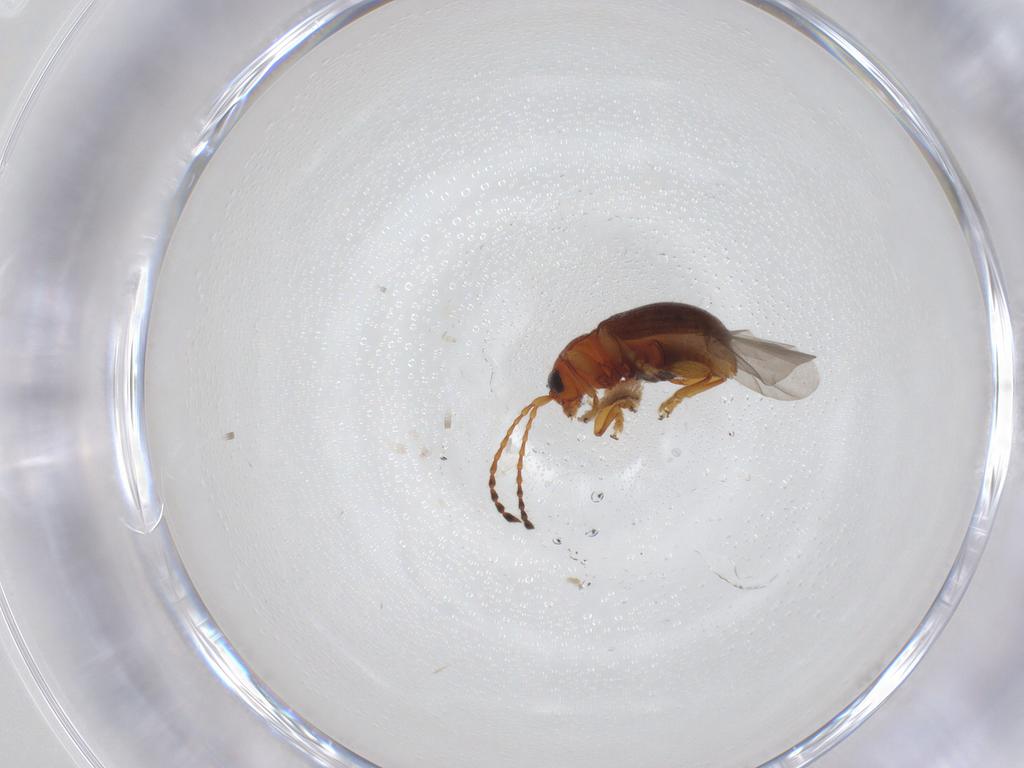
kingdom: Animalia
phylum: Arthropoda
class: Insecta
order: Coleoptera
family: Chrysomelidae
